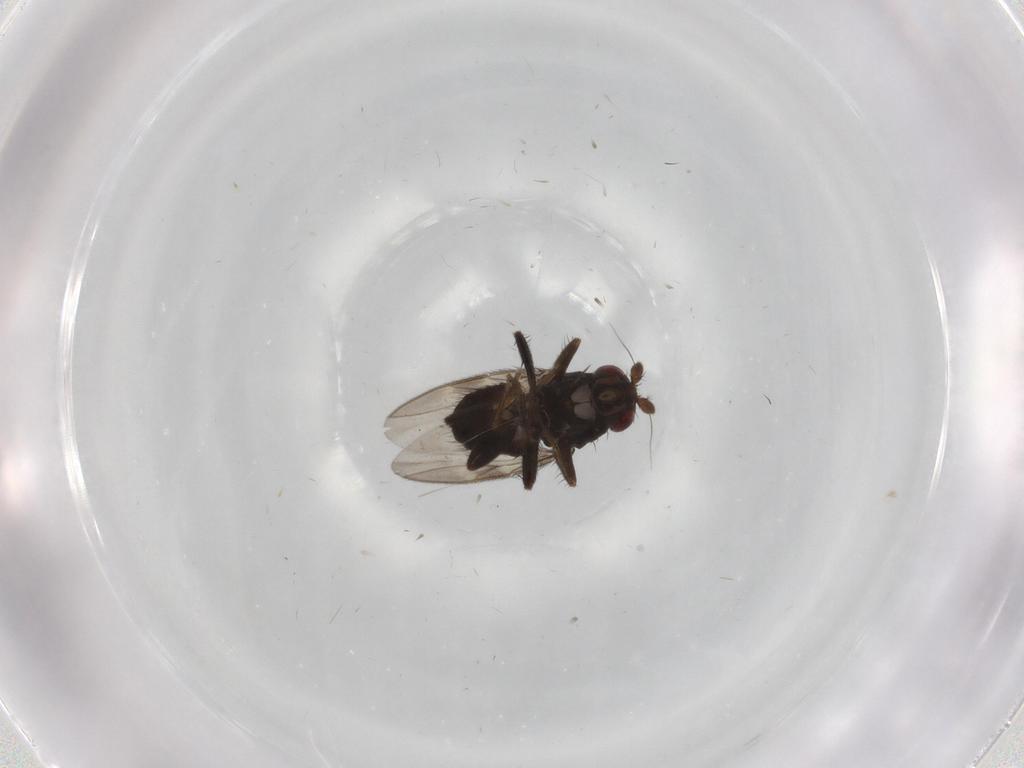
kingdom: Animalia
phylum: Arthropoda
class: Insecta
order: Diptera
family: Sphaeroceridae
